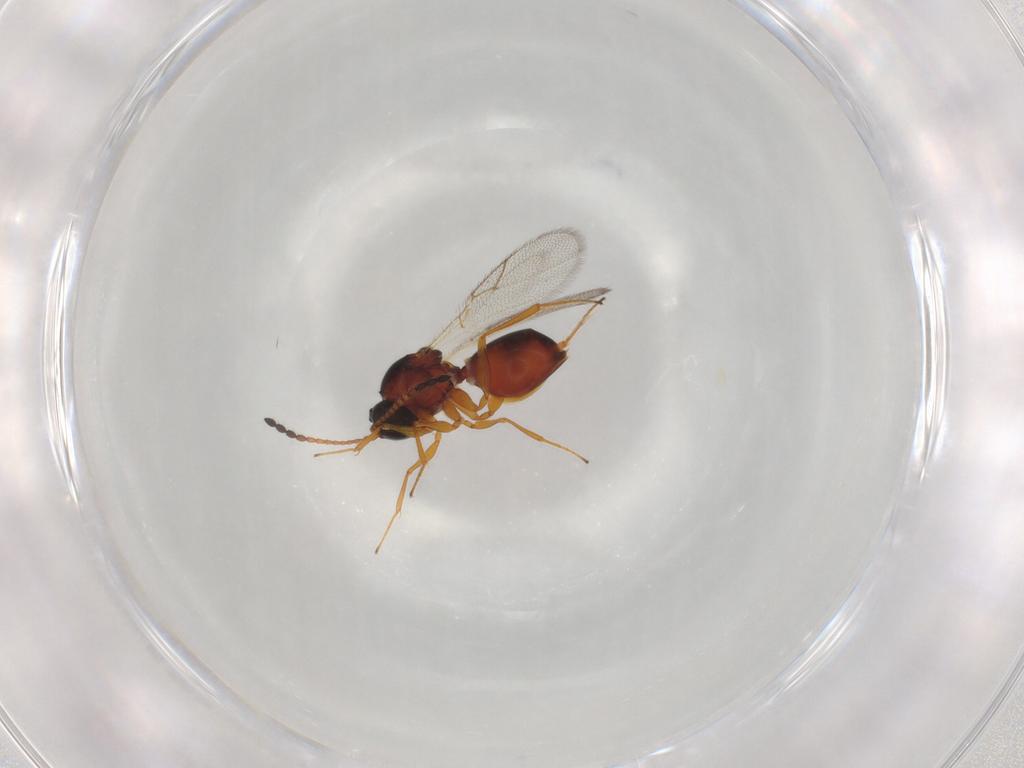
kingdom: Animalia
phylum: Arthropoda
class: Insecta
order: Hymenoptera
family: Figitidae
